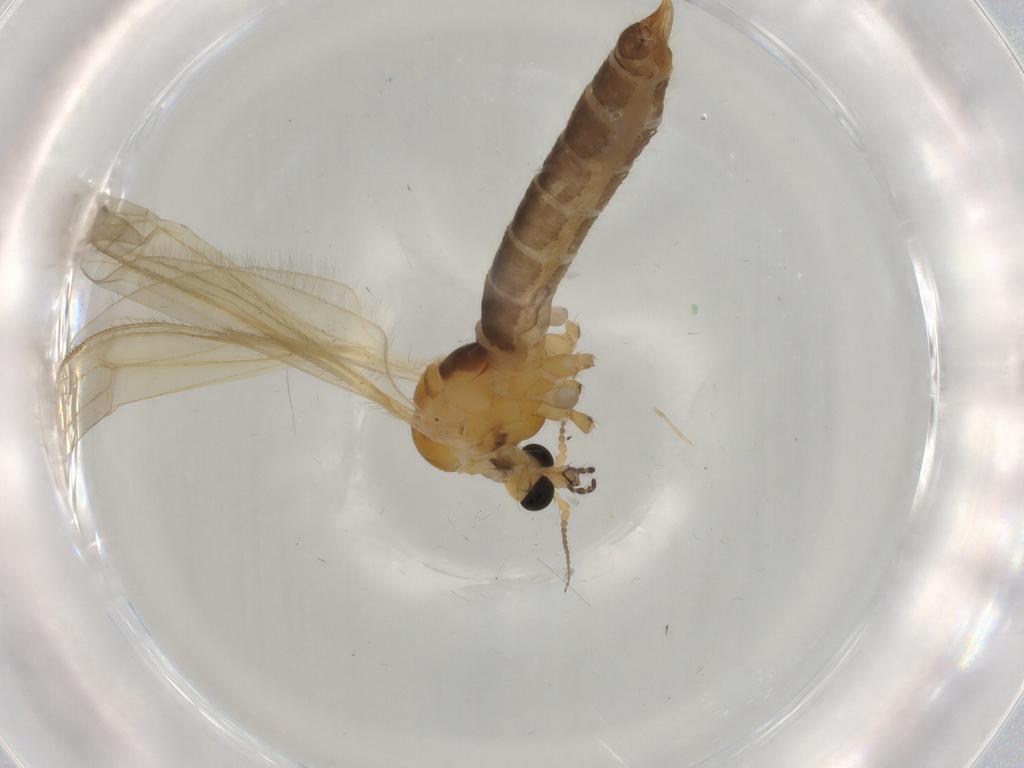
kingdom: Animalia
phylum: Arthropoda
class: Insecta
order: Diptera
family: Limoniidae
